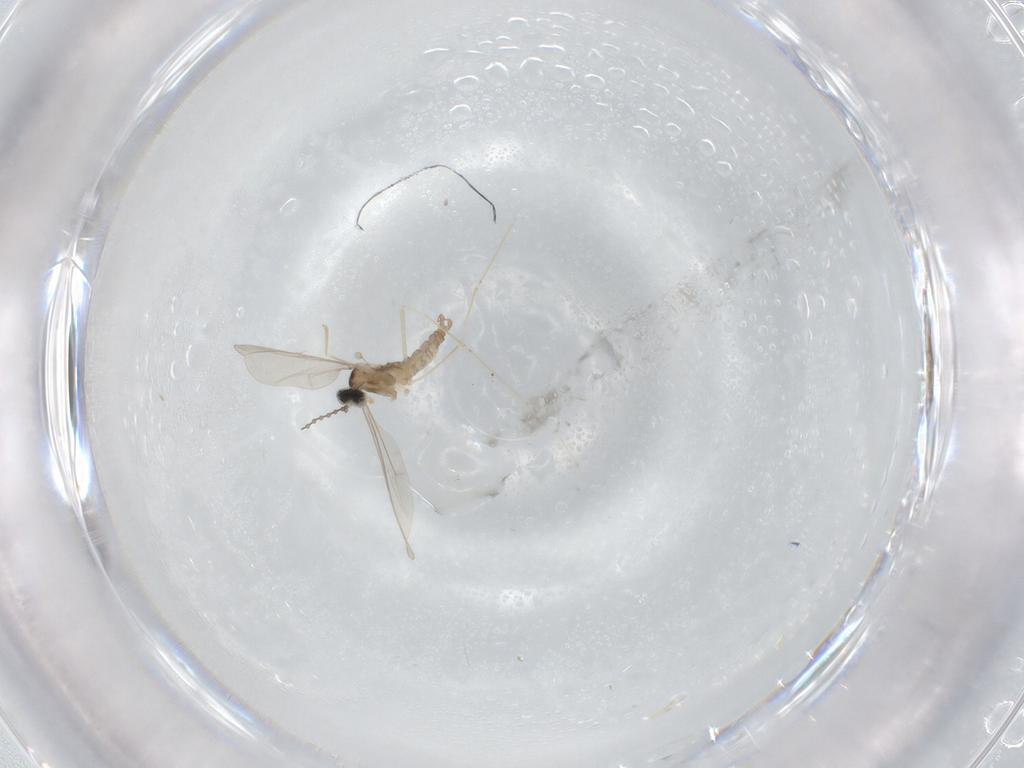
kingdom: Animalia
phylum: Arthropoda
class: Insecta
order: Diptera
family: Cecidomyiidae
